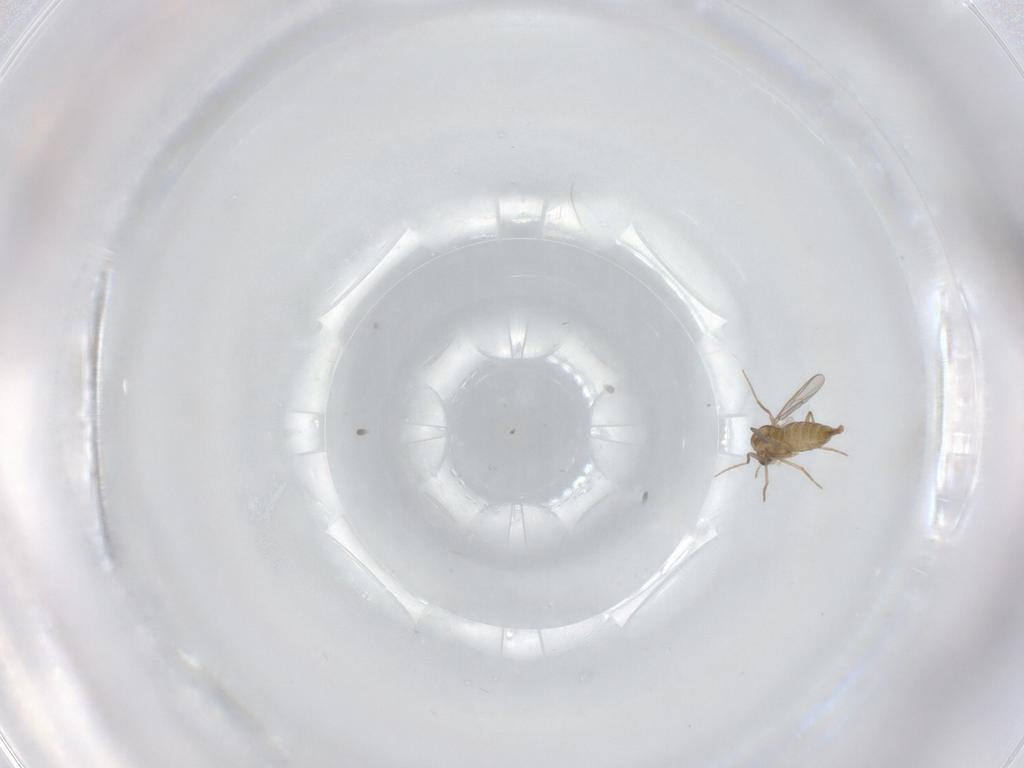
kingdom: Animalia
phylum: Arthropoda
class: Insecta
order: Diptera
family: Chironomidae
